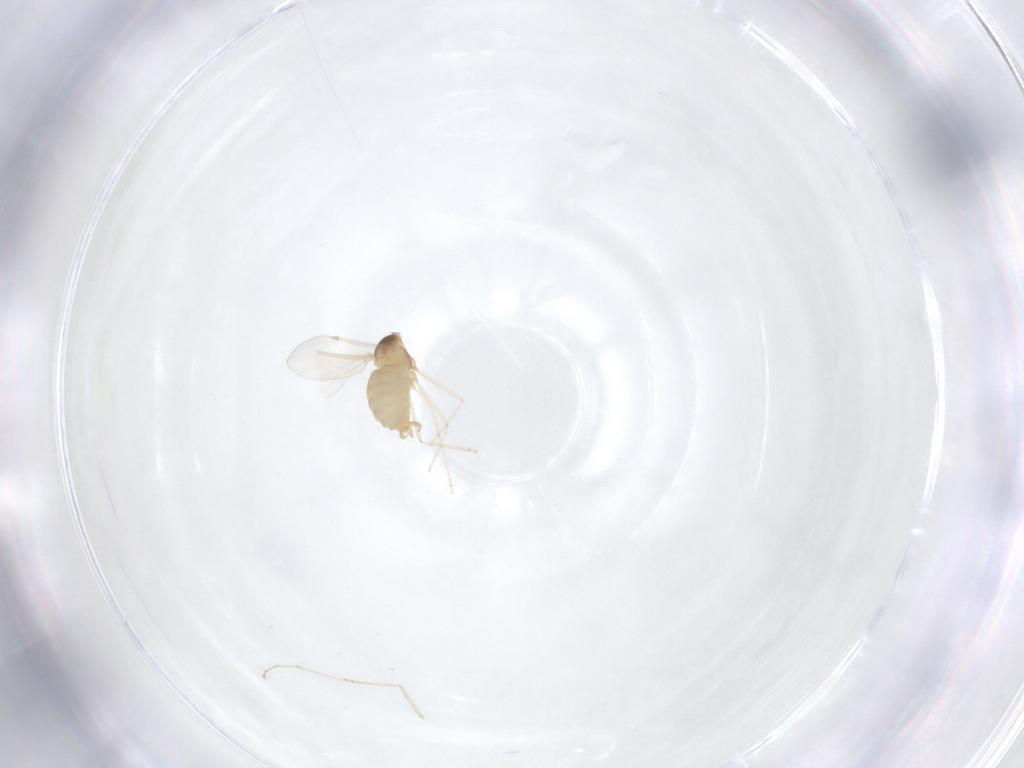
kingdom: Animalia
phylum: Arthropoda
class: Insecta
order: Diptera
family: Cecidomyiidae
